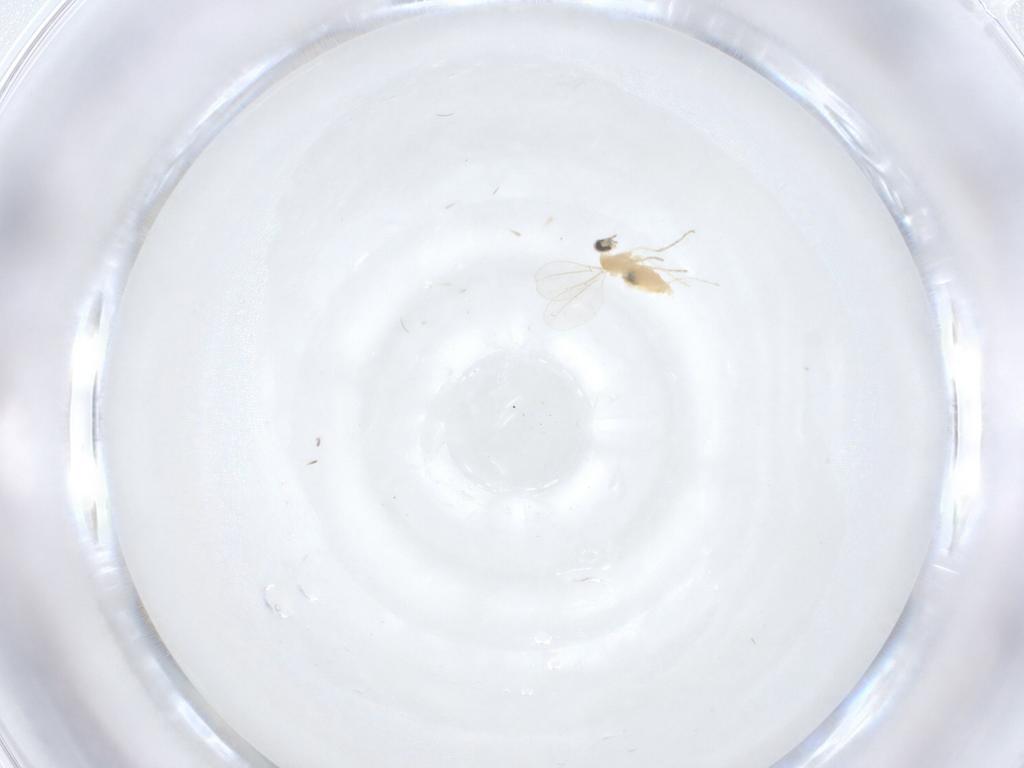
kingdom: Animalia
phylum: Arthropoda
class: Insecta
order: Diptera
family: Cecidomyiidae
